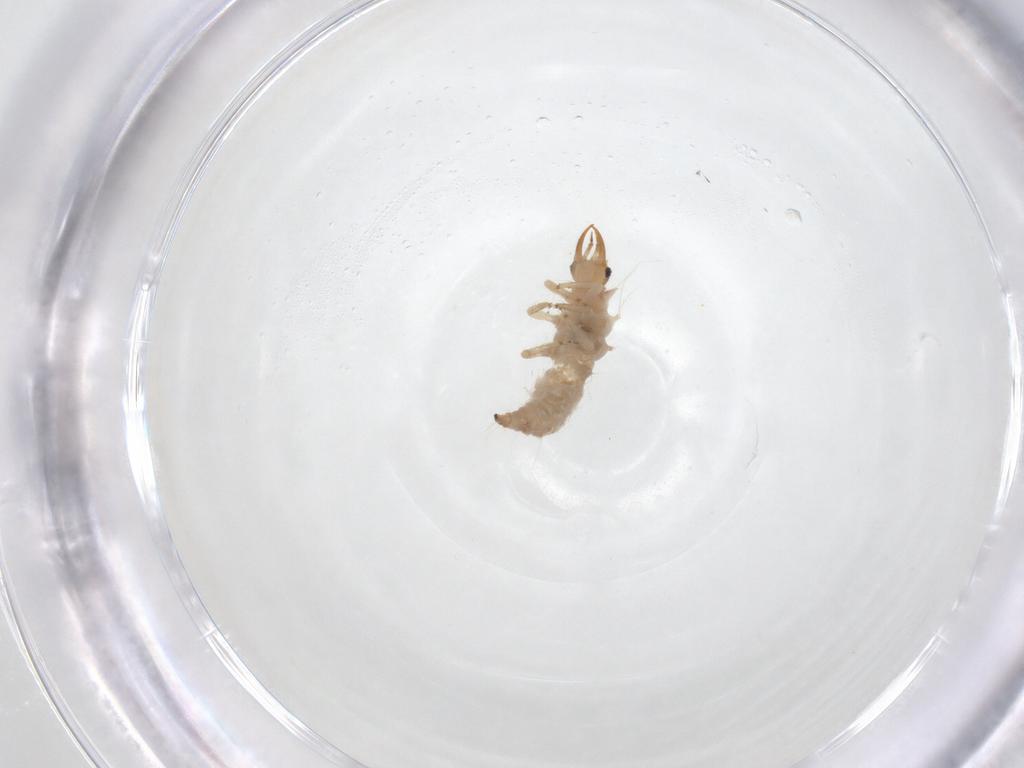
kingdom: Animalia
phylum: Arthropoda
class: Insecta
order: Neuroptera
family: Chrysopidae
